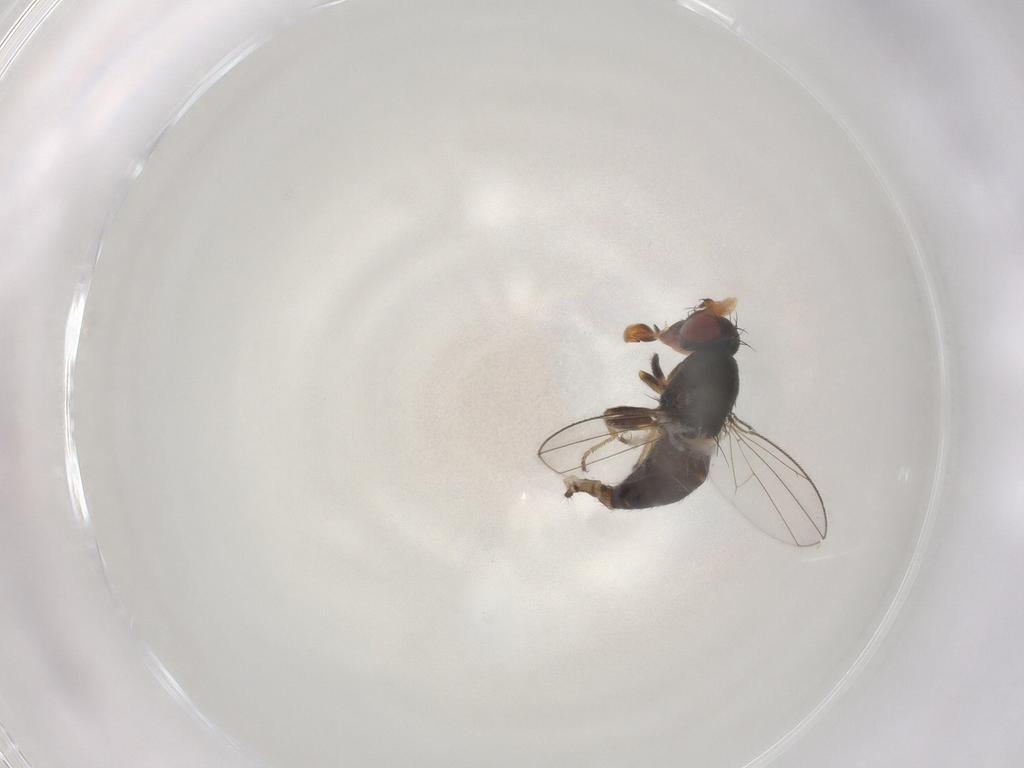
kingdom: Animalia
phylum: Arthropoda
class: Insecta
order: Diptera
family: Ephydridae
